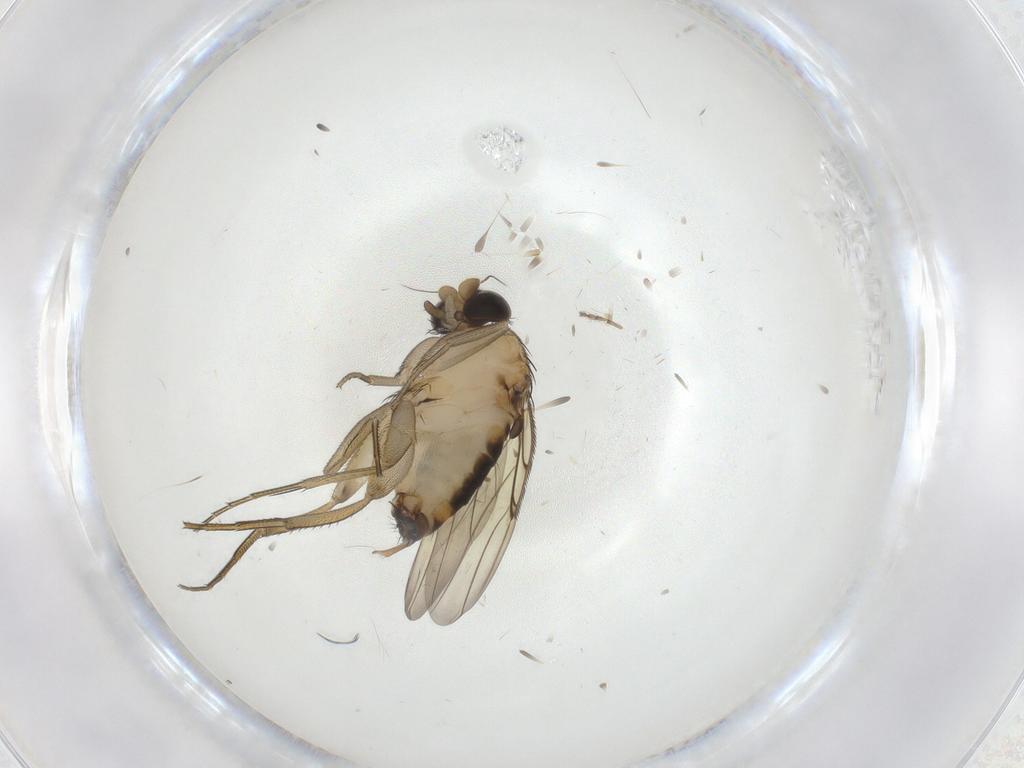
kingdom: Animalia
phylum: Arthropoda
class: Insecta
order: Diptera
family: Phoridae
